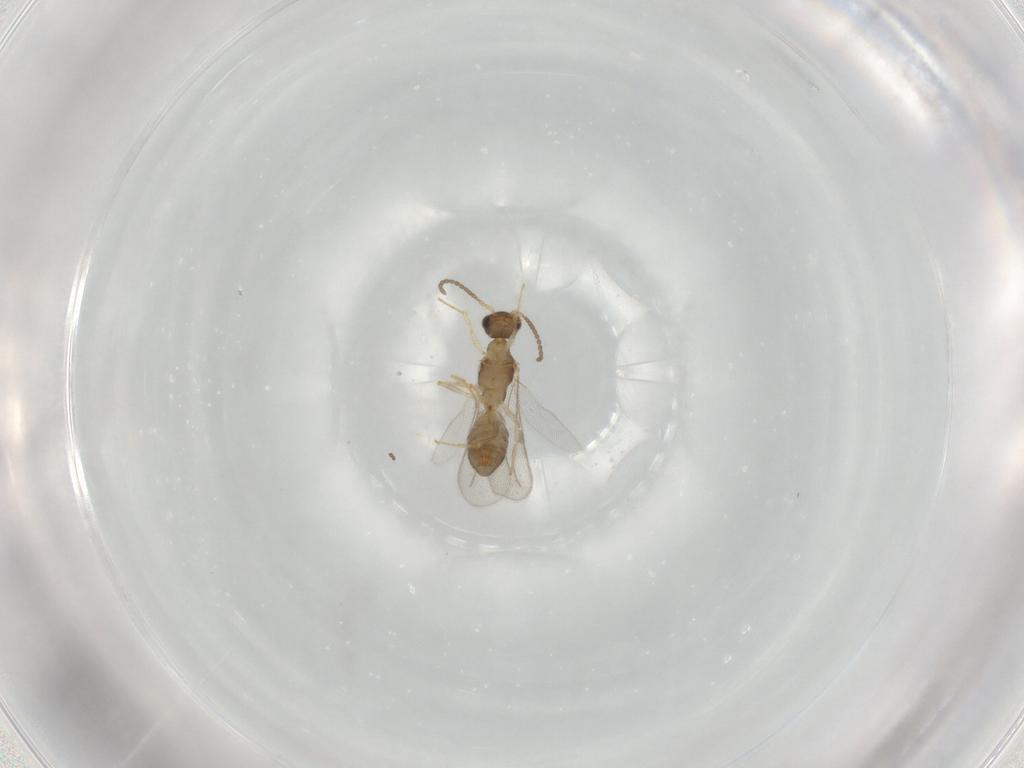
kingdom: Animalia
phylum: Arthropoda
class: Insecta
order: Hymenoptera
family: Bethylidae
